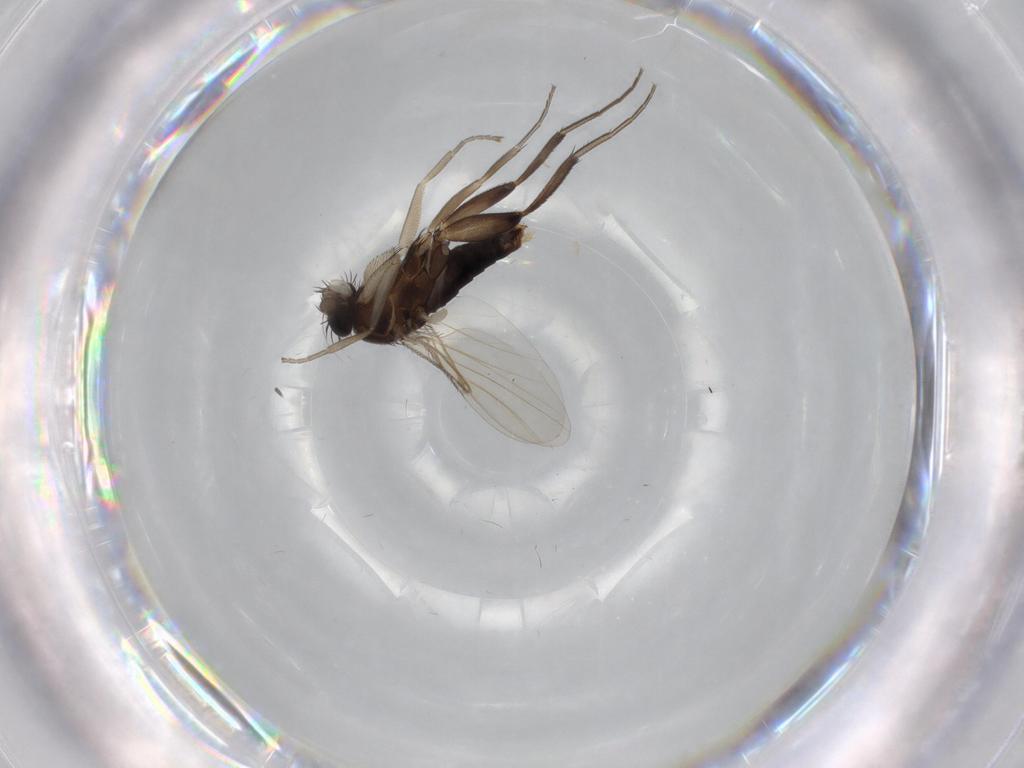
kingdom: Animalia
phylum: Arthropoda
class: Insecta
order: Diptera
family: Phoridae
